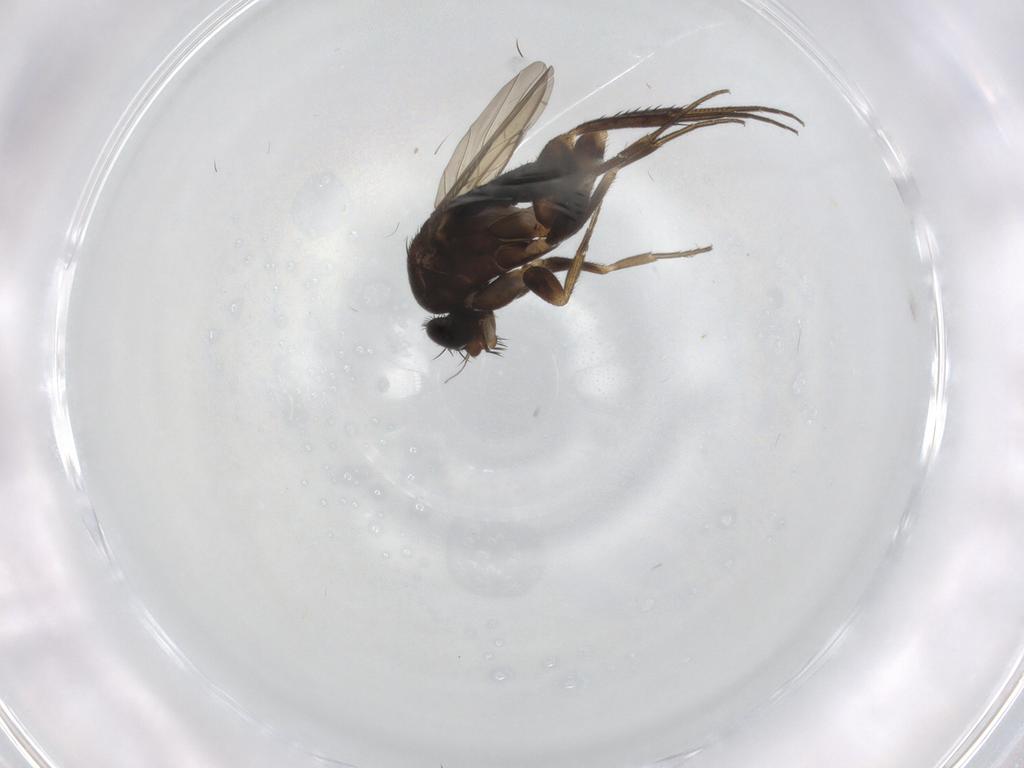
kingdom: Animalia
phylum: Arthropoda
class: Insecta
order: Diptera
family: Phoridae
